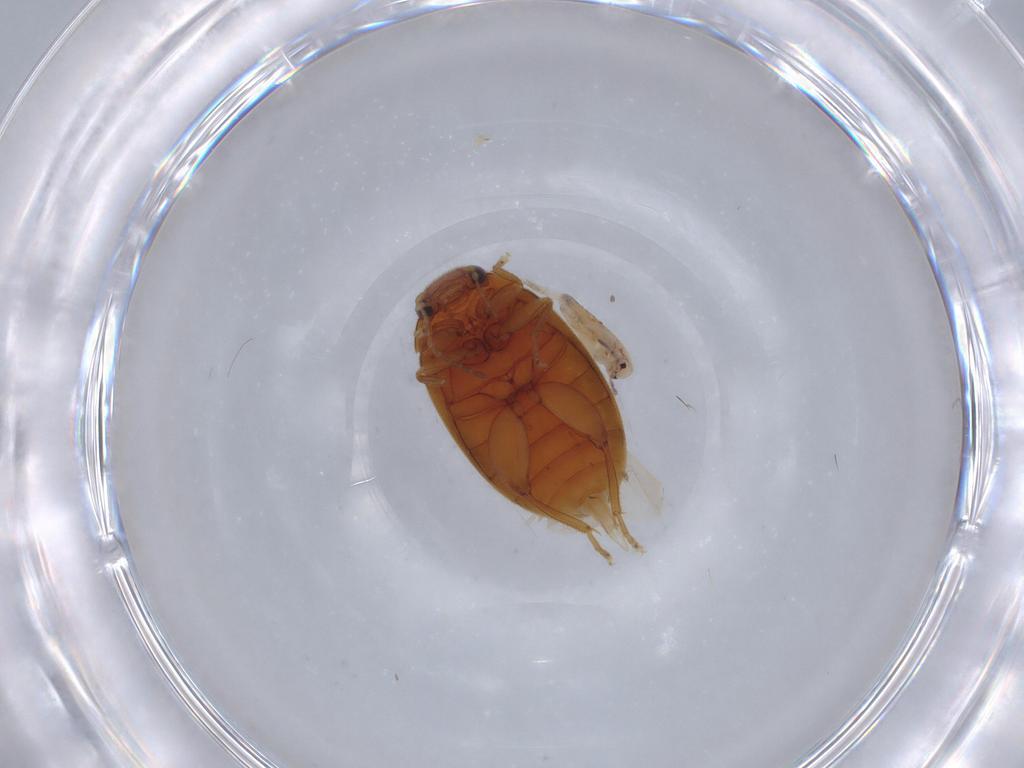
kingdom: Animalia
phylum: Arthropoda
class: Insecta
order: Coleoptera
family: Scirtidae
